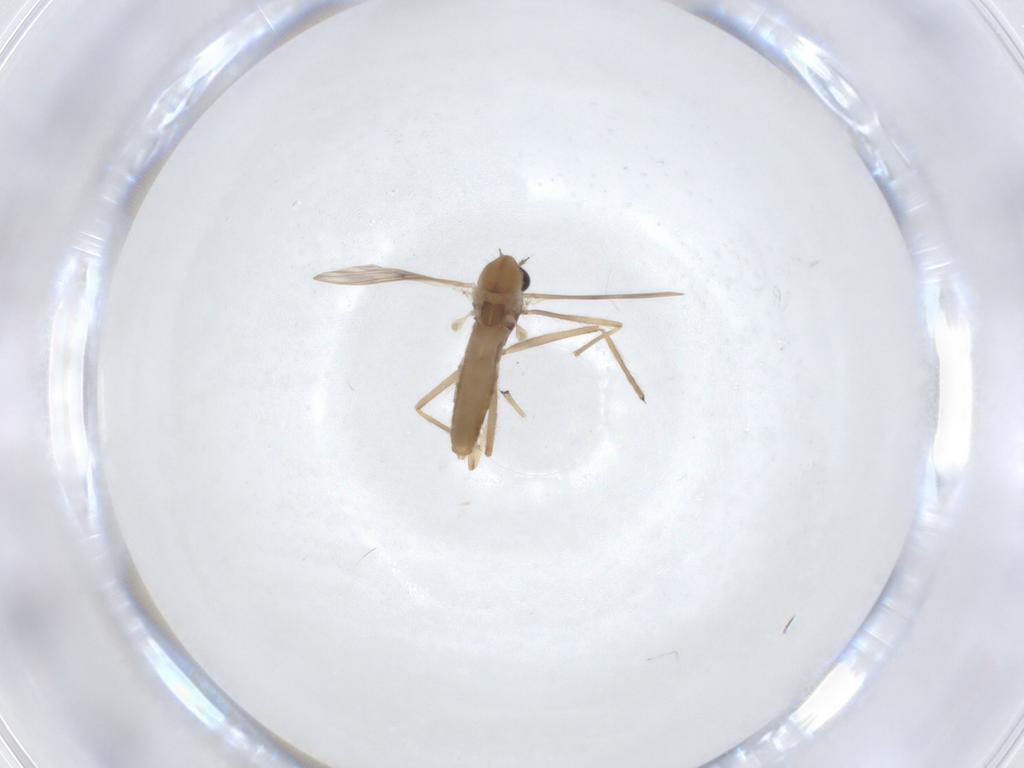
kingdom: Animalia
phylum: Arthropoda
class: Insecta
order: Diptera
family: Chironomidae
